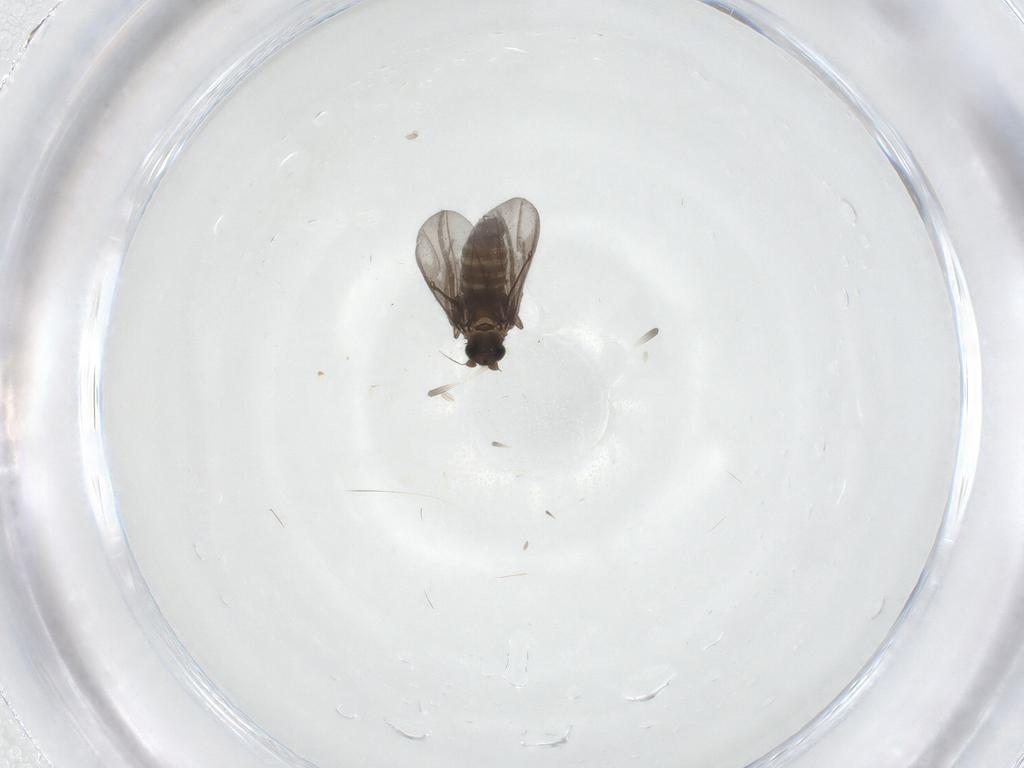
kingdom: Animalia
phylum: Arthropoda
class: Insecta
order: Diptera
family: Phoridae
